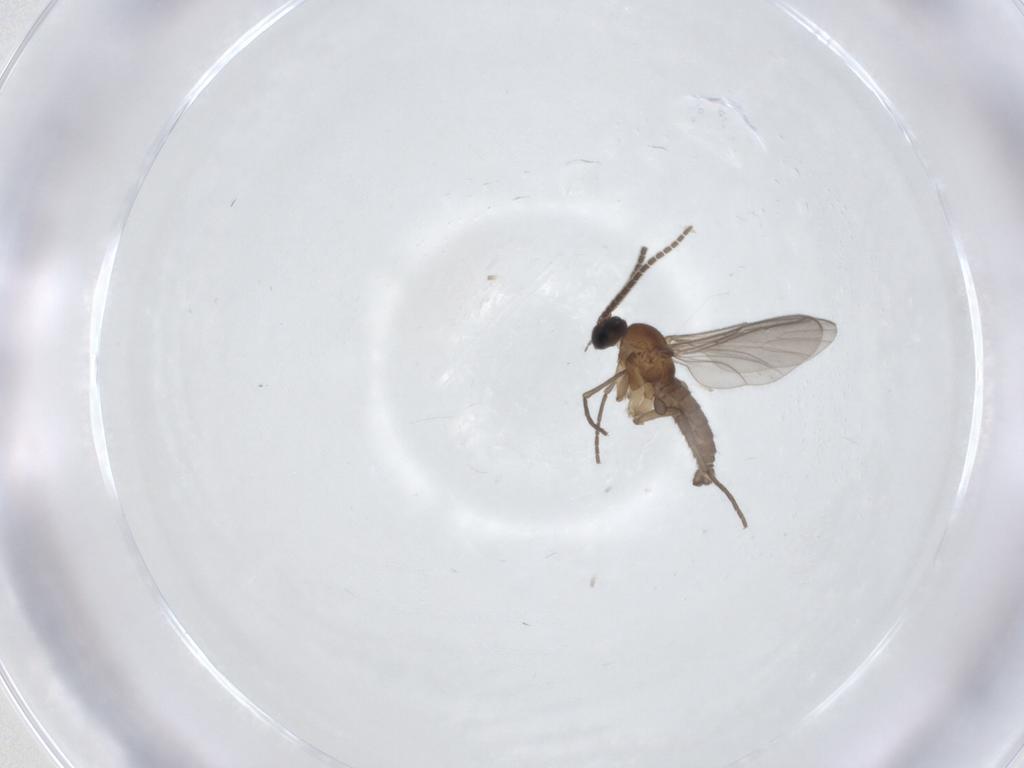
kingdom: Animalia
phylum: Arthropoda
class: Insecta
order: Diptera
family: Sciaridae
